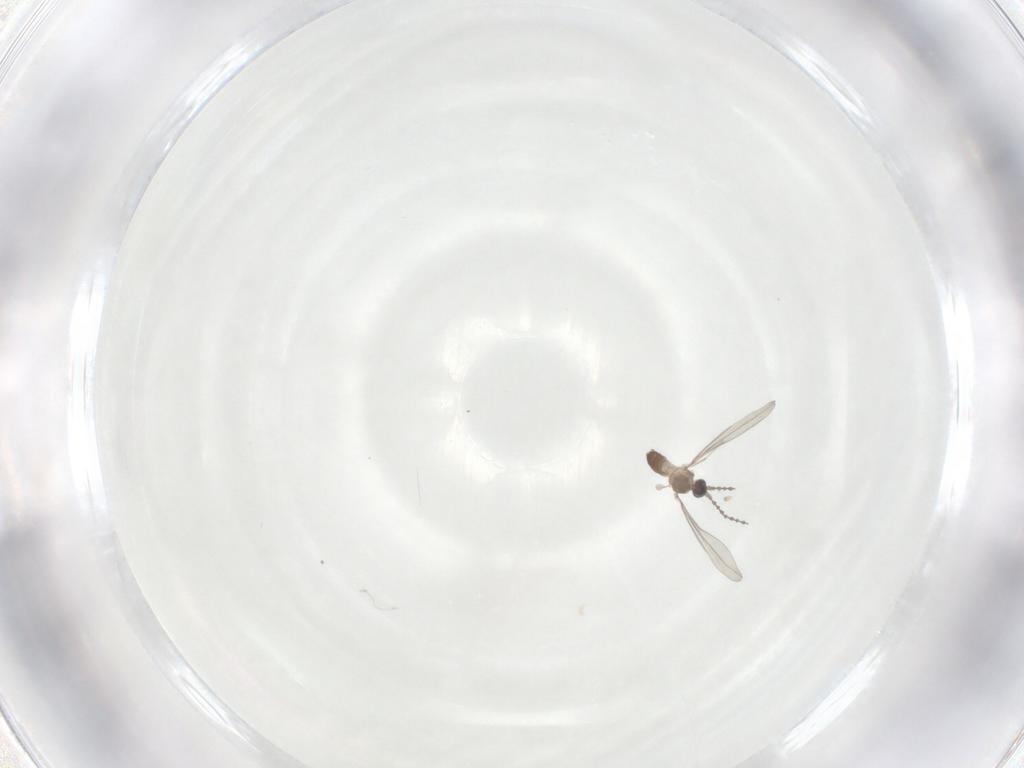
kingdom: Animalia
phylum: Arthropoda
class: Insecta
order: Diptera
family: Cecidomyiidae
